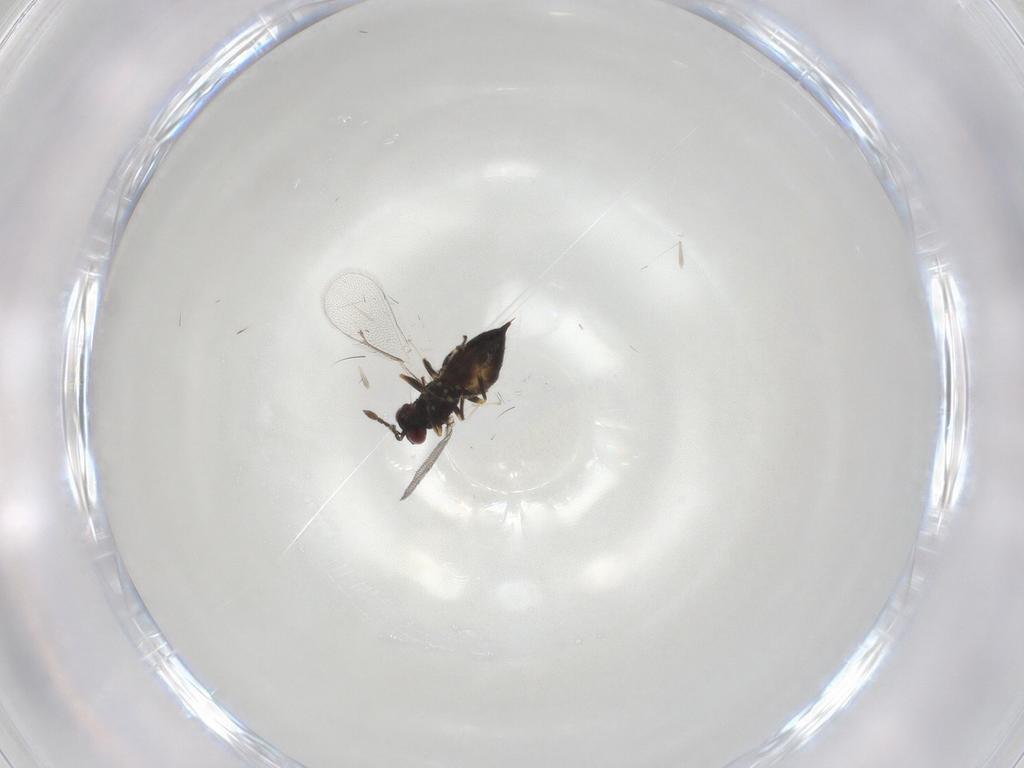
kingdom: Animalia
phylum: Arthropoda
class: Insecta
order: Hymenoptera
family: Eulophidae
